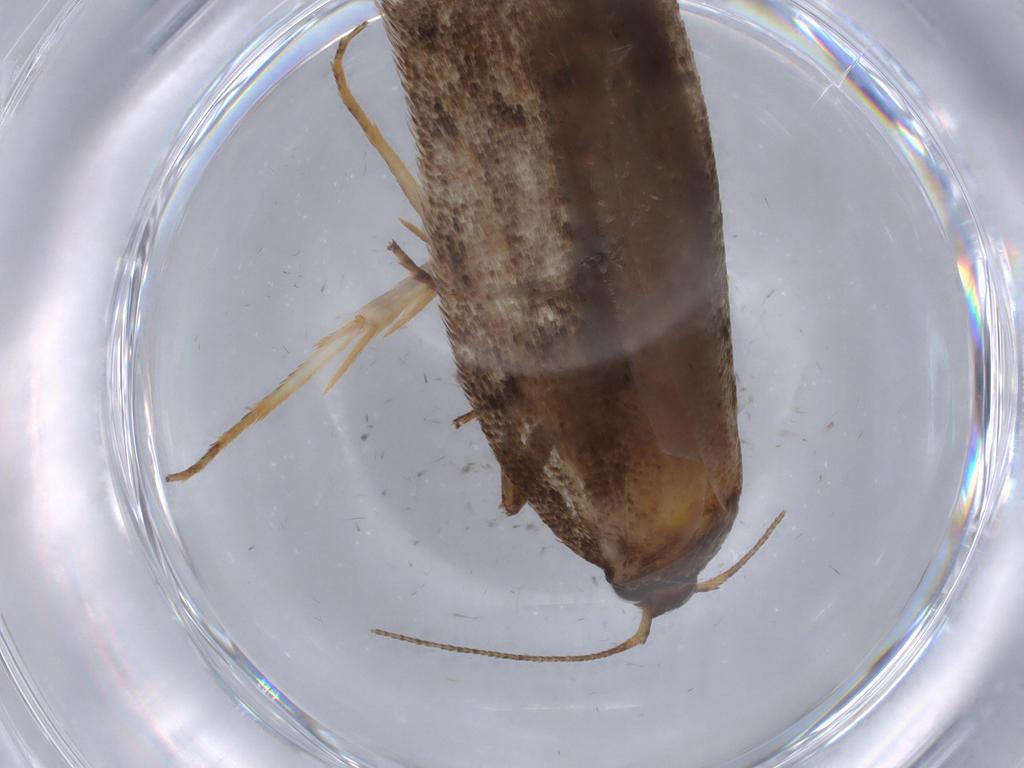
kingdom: Animalia
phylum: Arthropoda
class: Insecta
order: Lepidoptera
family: Oecophoridae
